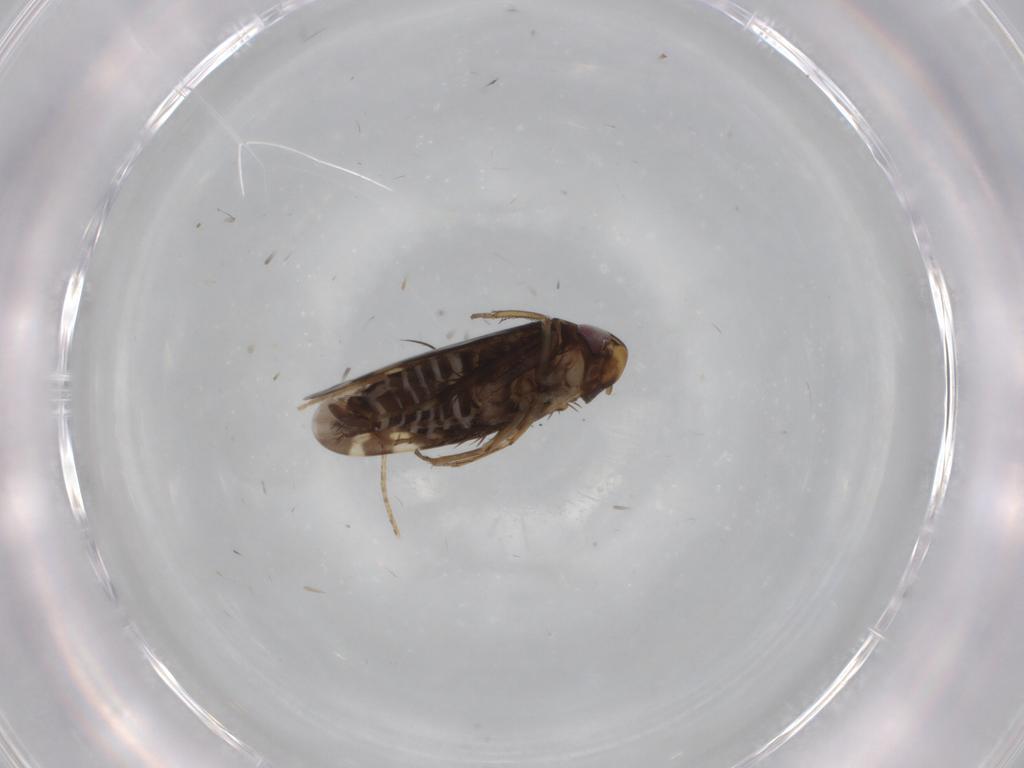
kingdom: Animalia
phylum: Arthropoda
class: Insecta
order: Hemiptera
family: Cicadellidae
